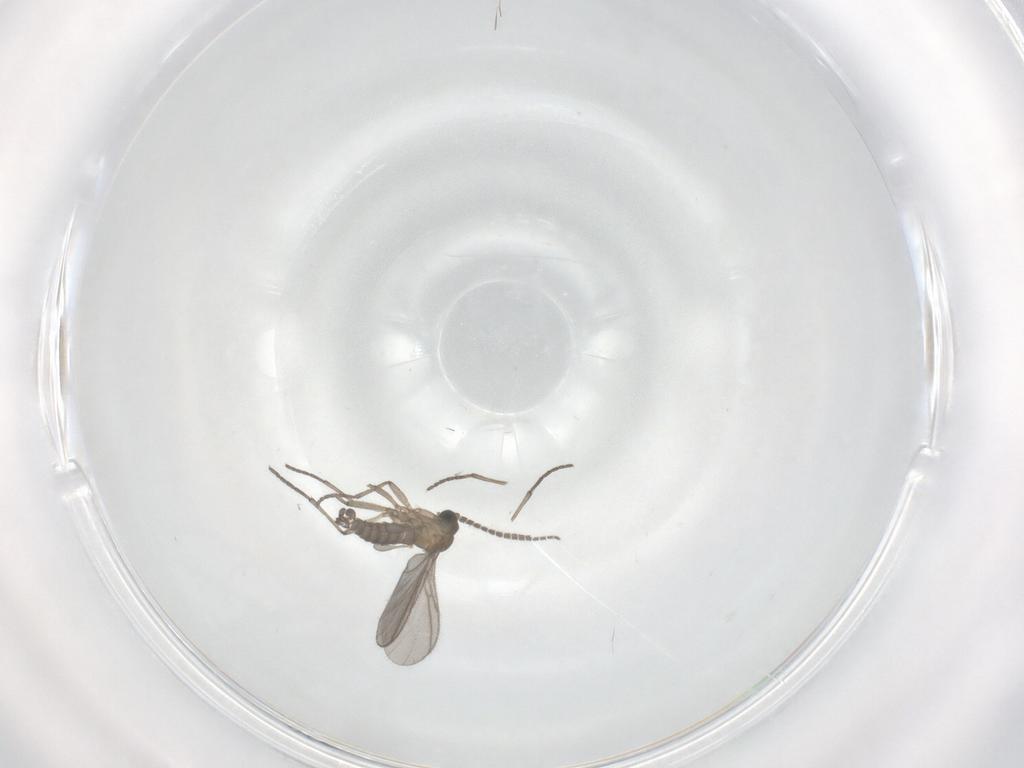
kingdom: Animalia
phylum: Arthropoda
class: Insecta
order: Diptera
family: Sciaridae
